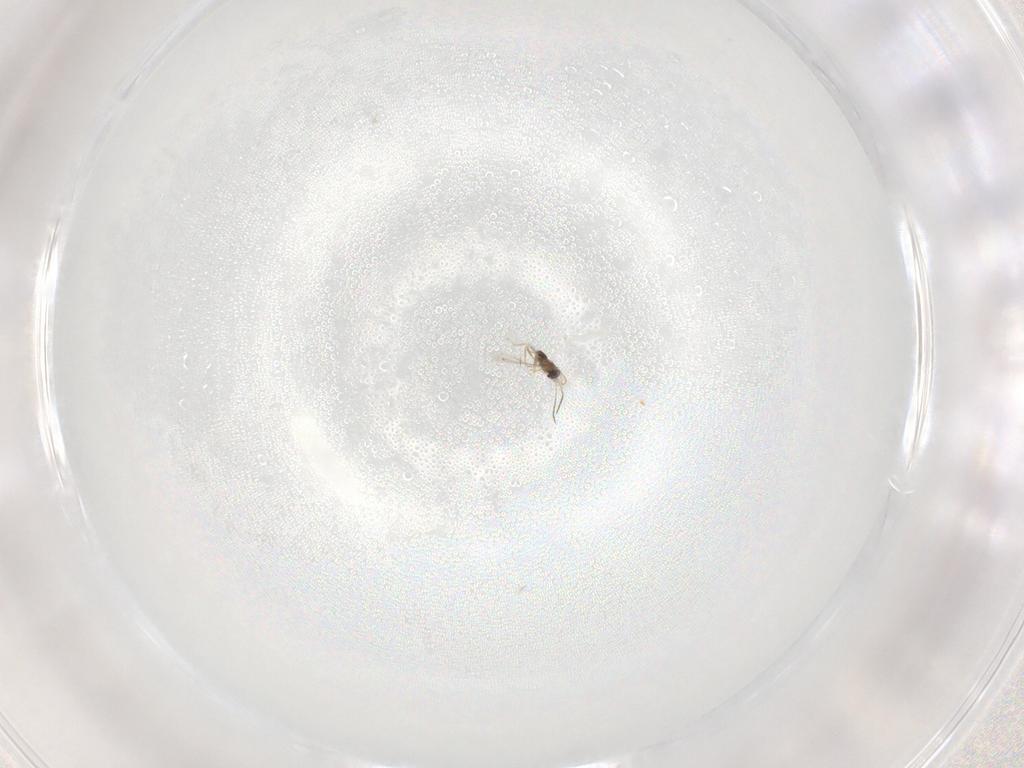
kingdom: Animalia
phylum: Arthropoda
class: Insecta
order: Hymenoptera
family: Mymaridae
